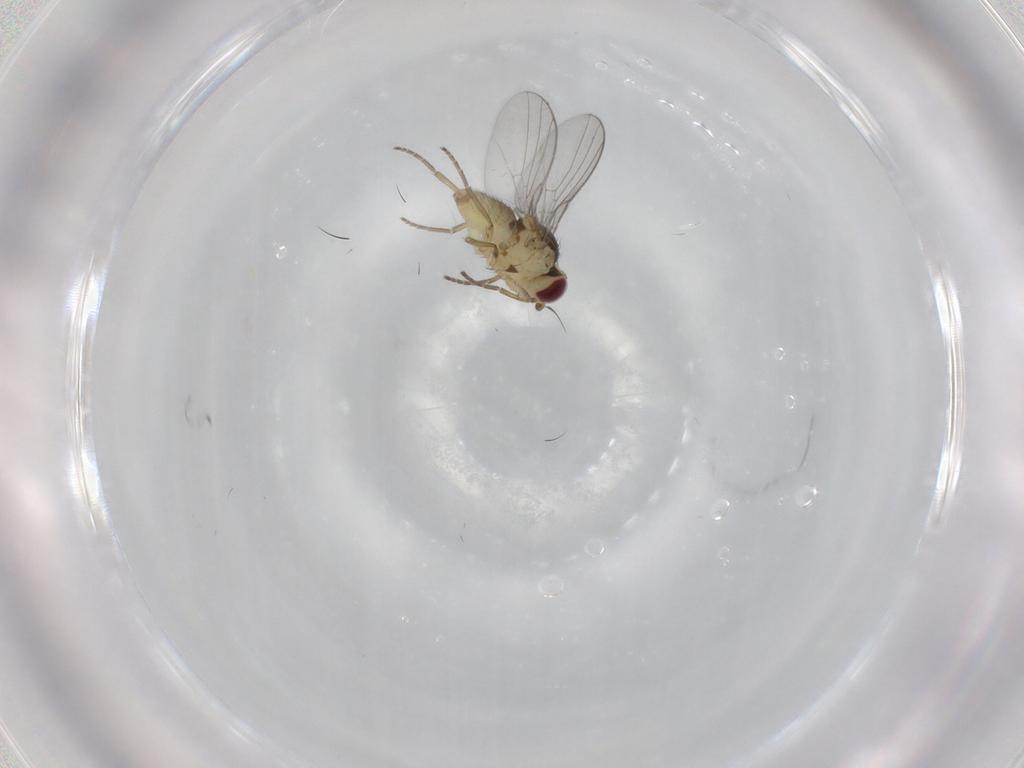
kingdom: Animalia
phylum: Arthropoda
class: Insecta
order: Diptera
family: Agromyzidae
